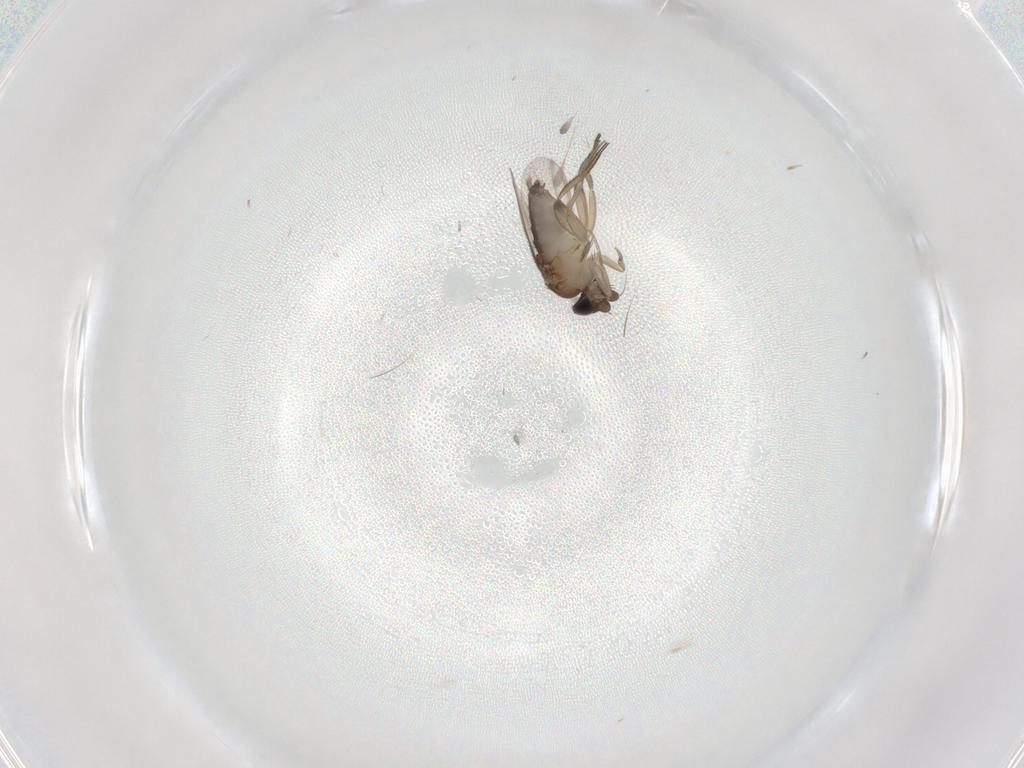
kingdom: Animalia
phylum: Arthropoda
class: Insecta
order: Diptera
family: Phoridae
